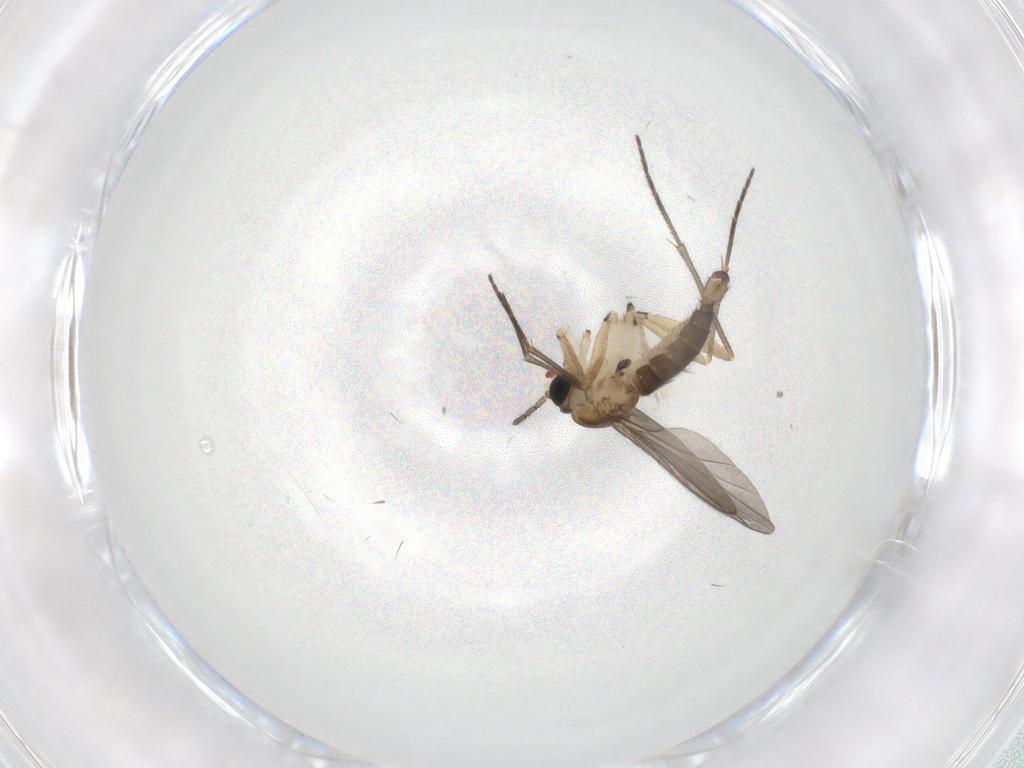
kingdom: Animalia
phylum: Arthropoda
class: Insecta
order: Diptera
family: Sciaridae
